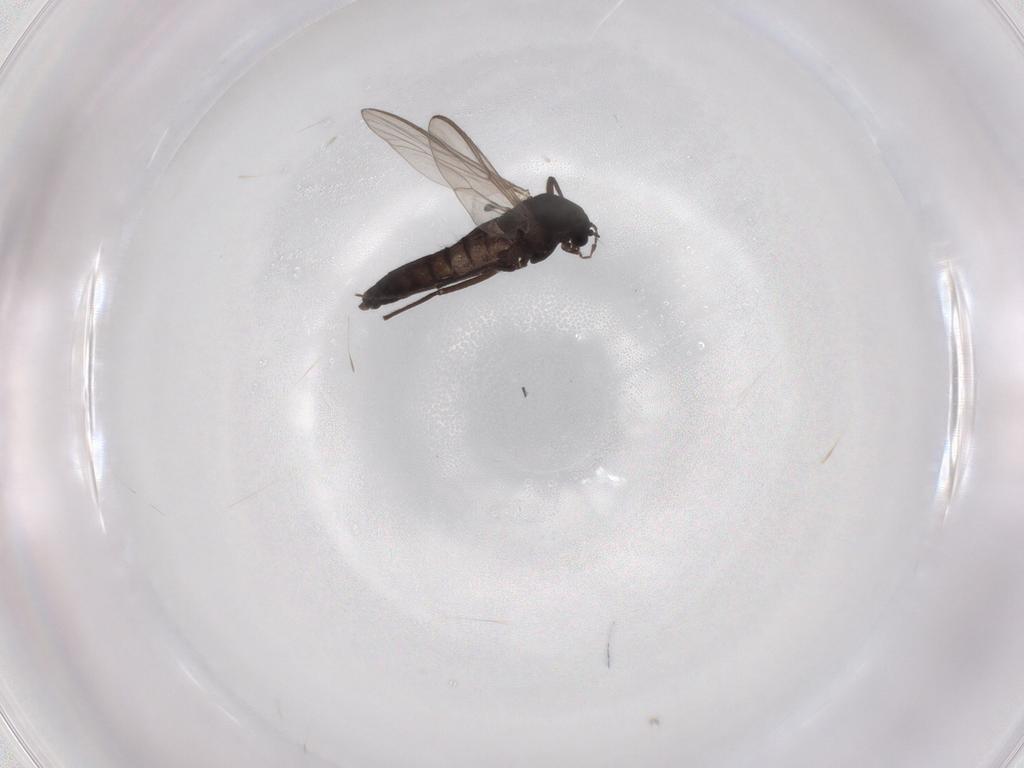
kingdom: Animalia
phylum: Arthropoda
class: Insecta
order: Diptera
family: Chironomidae
